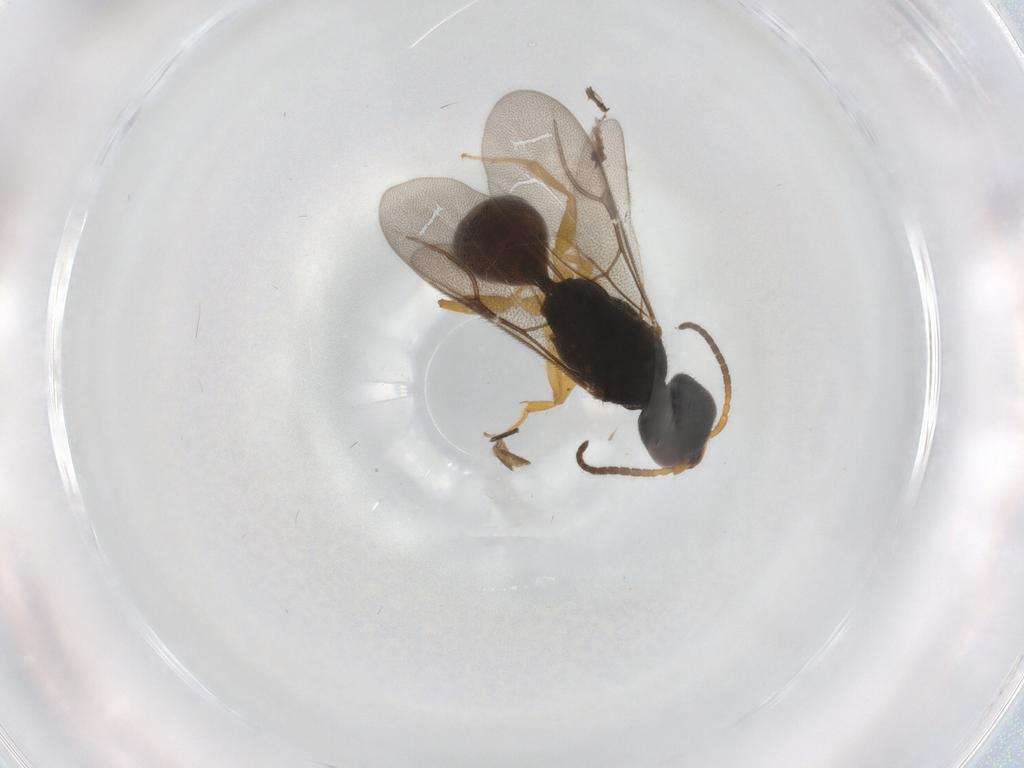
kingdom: Animalia
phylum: Arthropoda
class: Insecta
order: Hymenoptera
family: Bethylidae
